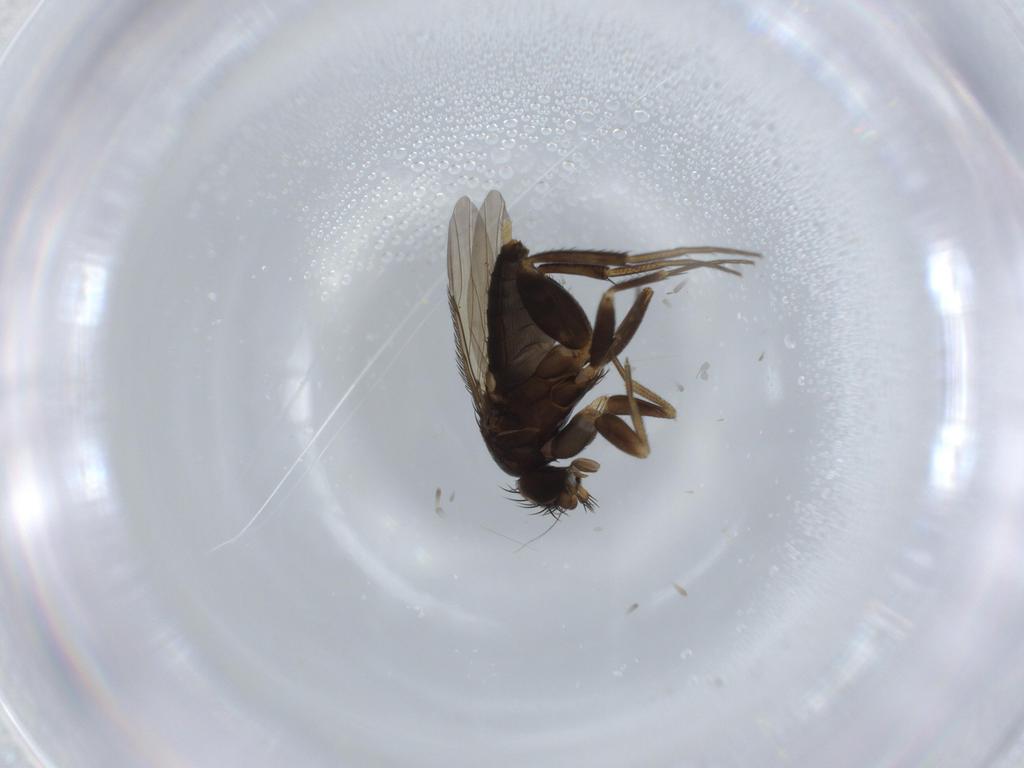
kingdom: Animalia
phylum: Arthropoda
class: Insecta
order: Diptera
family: Phoridae
